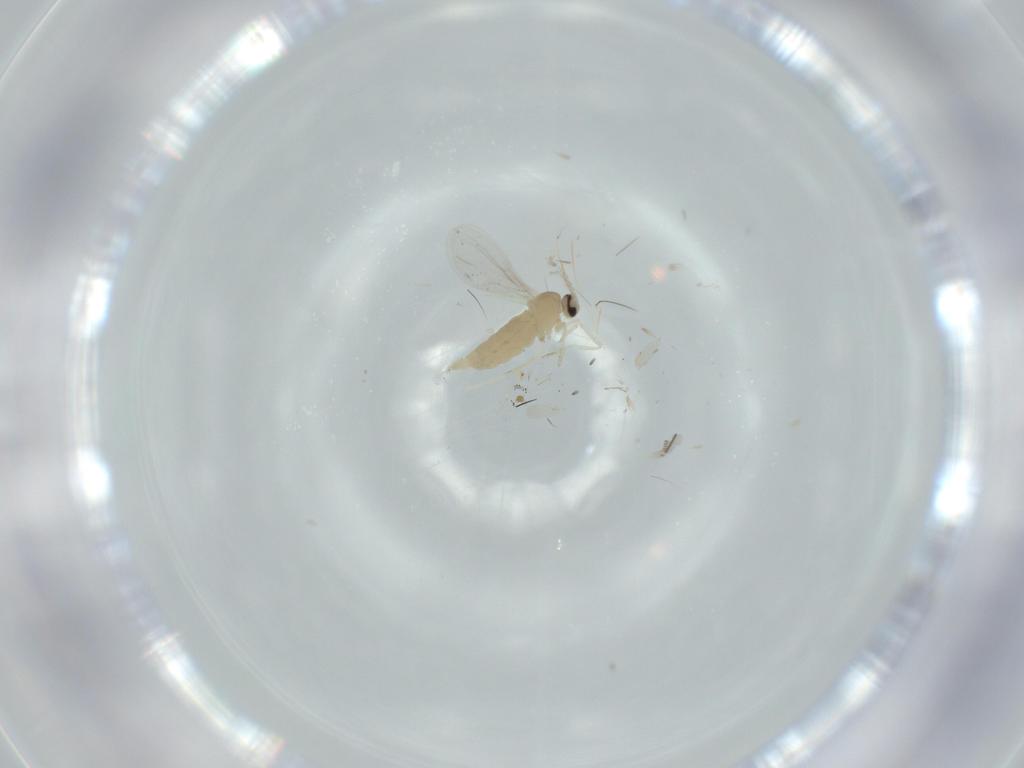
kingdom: Animalia
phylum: Arthropoda
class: Insecta
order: Diptera
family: Cecidomyiidae
